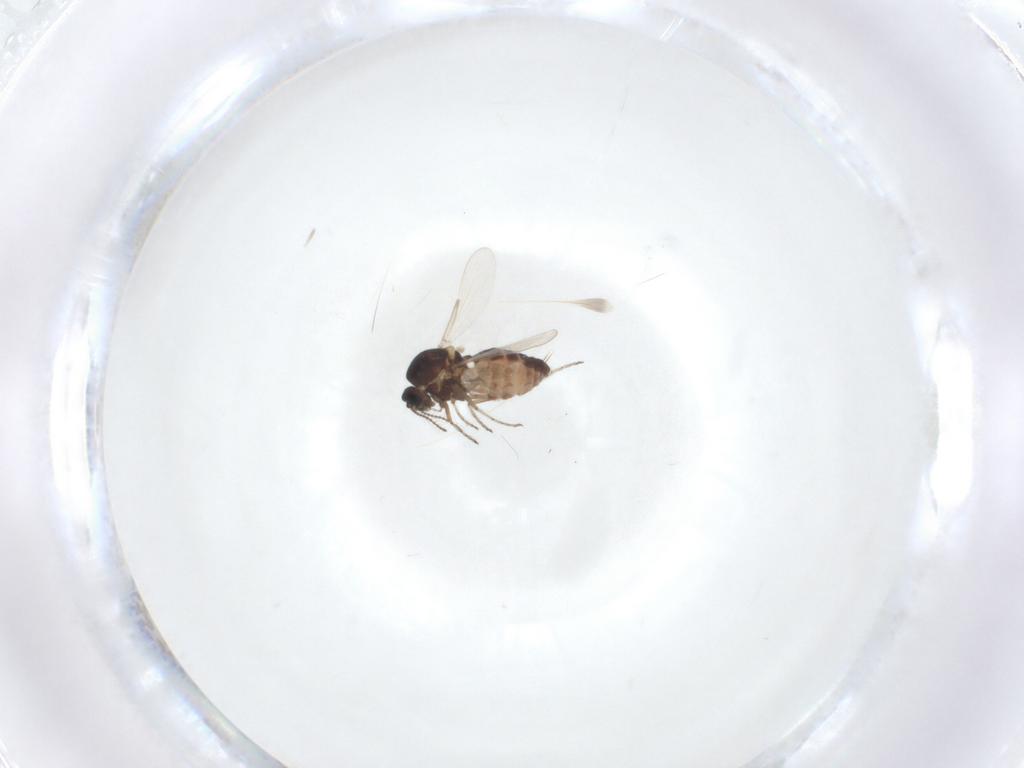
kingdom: Animalia
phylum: Arthropoda
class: Insecta
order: Diptera
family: Ceratopogonidae
